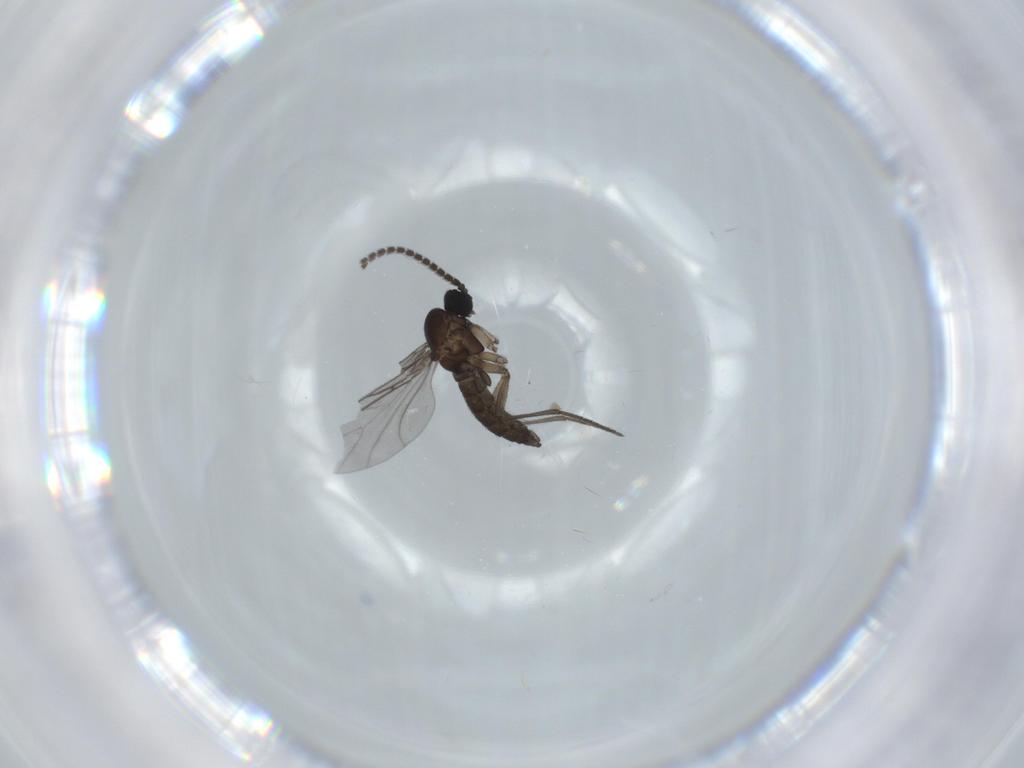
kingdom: Animalia
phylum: Arthropoda
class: Insecta
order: Diptera
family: Sciaridae
